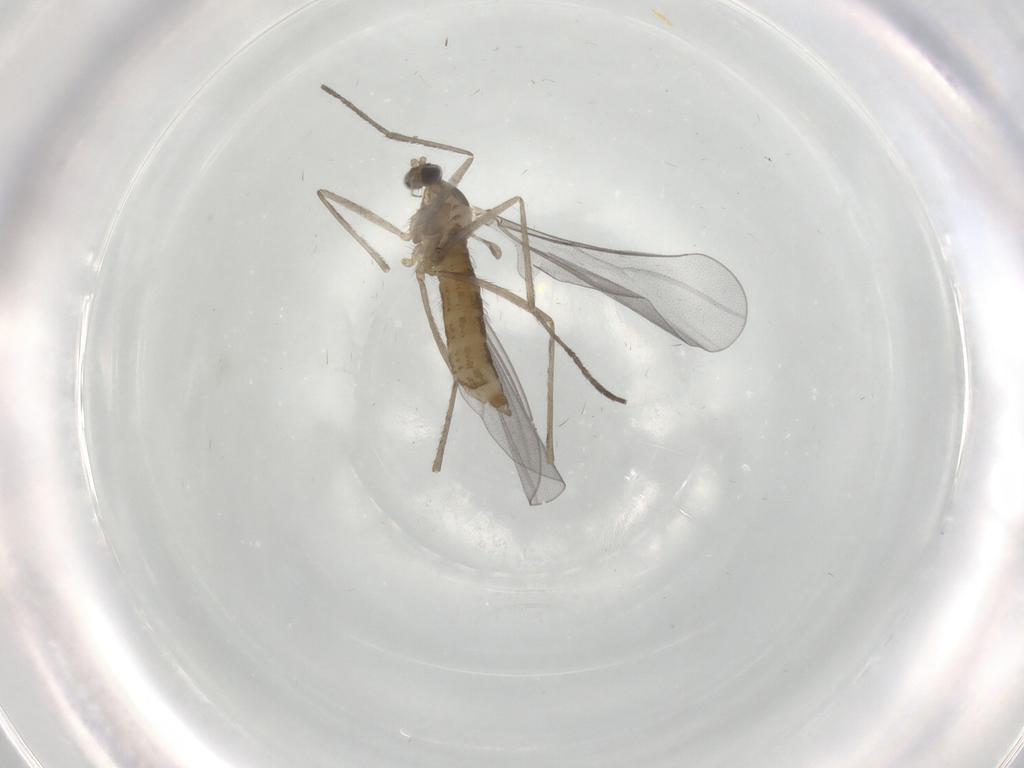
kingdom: Animalia
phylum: Arthropoda
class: Insecta
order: Diptera
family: Cecidomyiidae
